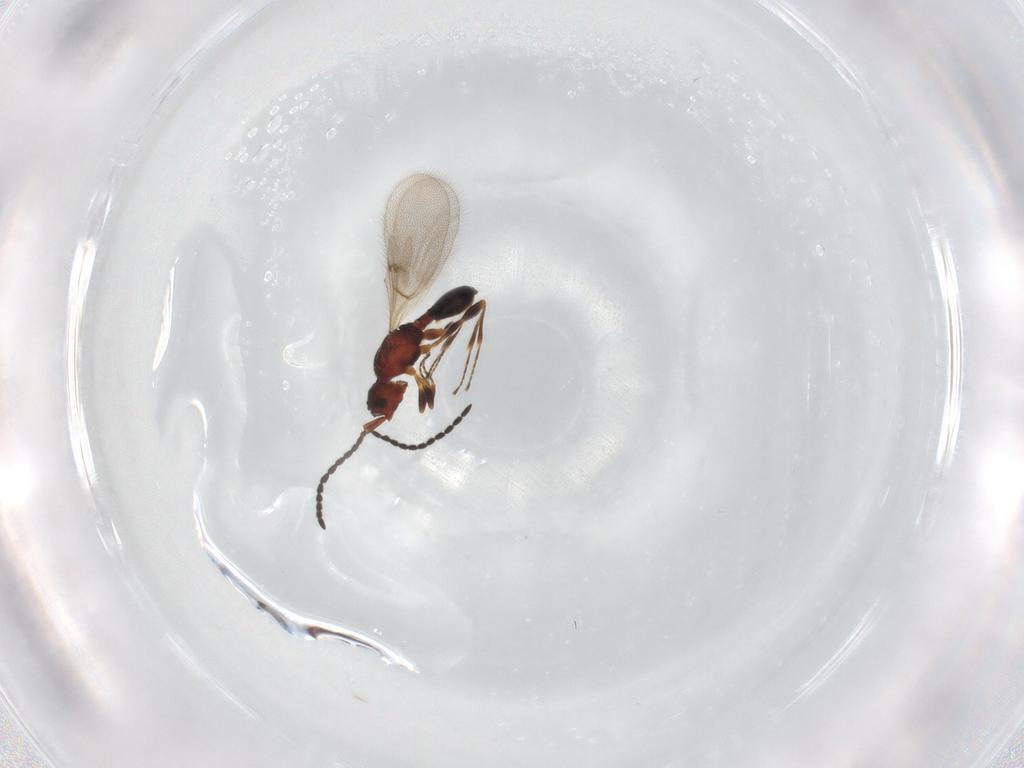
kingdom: Animalia
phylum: Arthropoda
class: Insecta
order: Hymenoptera
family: Diapriidae
